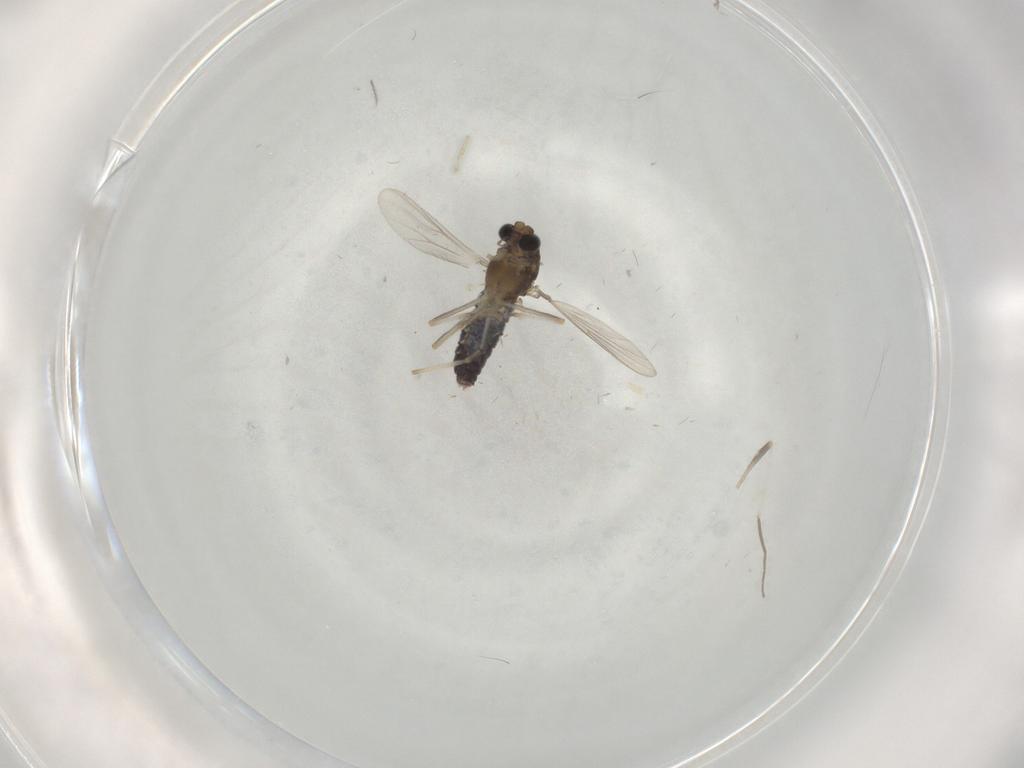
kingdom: Animalia
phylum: Arthropoda
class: Insecta
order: Diptera
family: Chironomidae
